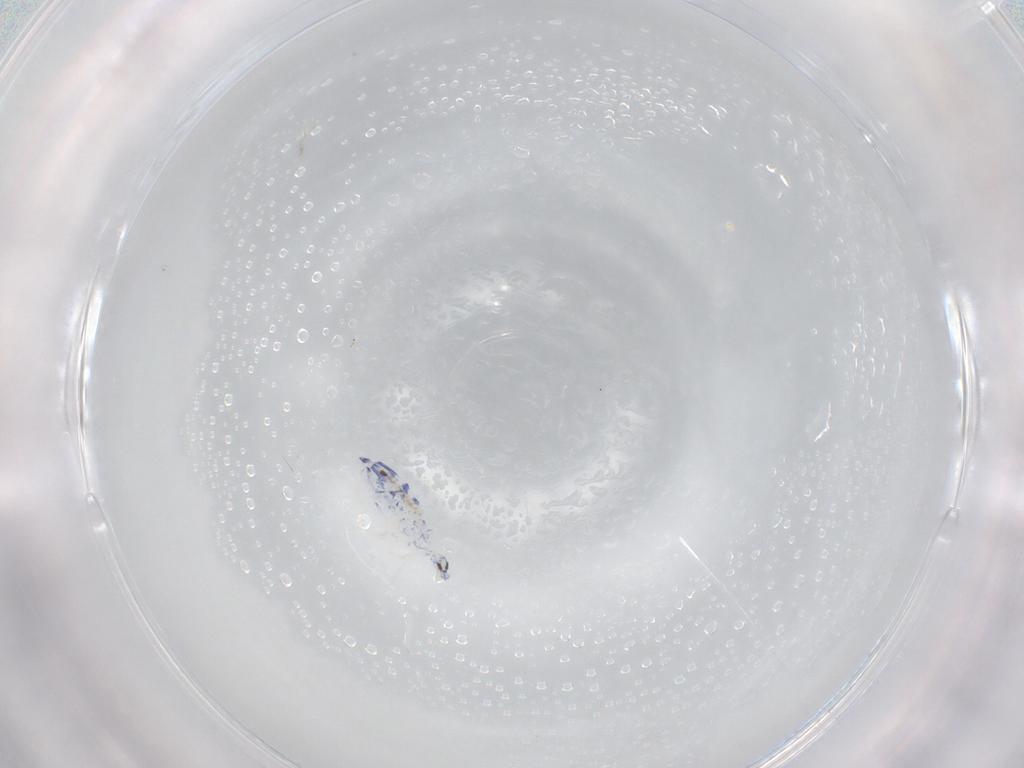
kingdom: Animalia
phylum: Arthropoda
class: Collembola
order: Entomobryomorpha
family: Entomobryidae
